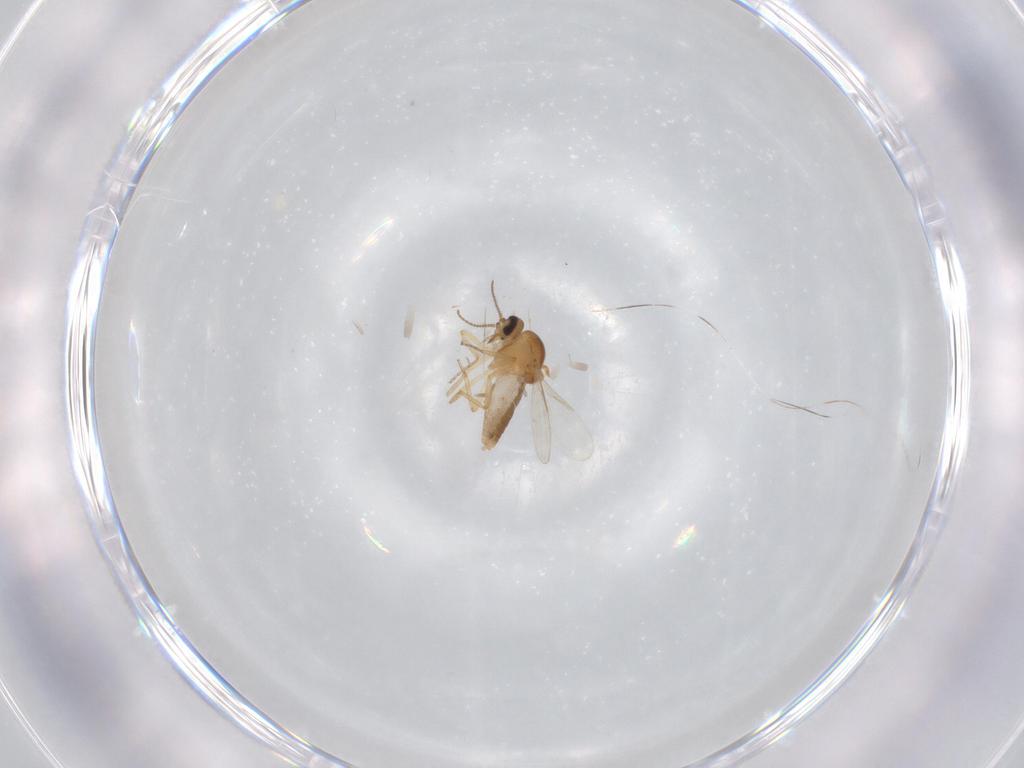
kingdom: Animalia
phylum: Arthropoda
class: Insecta
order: Diptera
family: Ceratopogonidae
